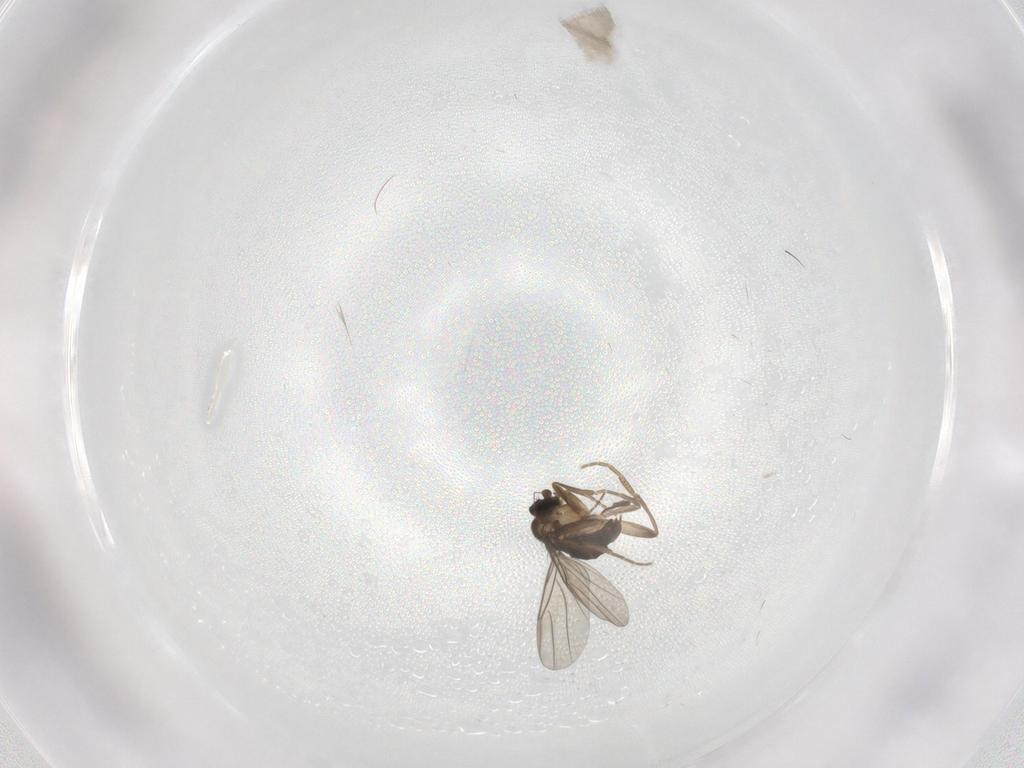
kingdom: Animalia
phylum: Arthropoda
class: Insecta
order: Diptera
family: Phoridae
